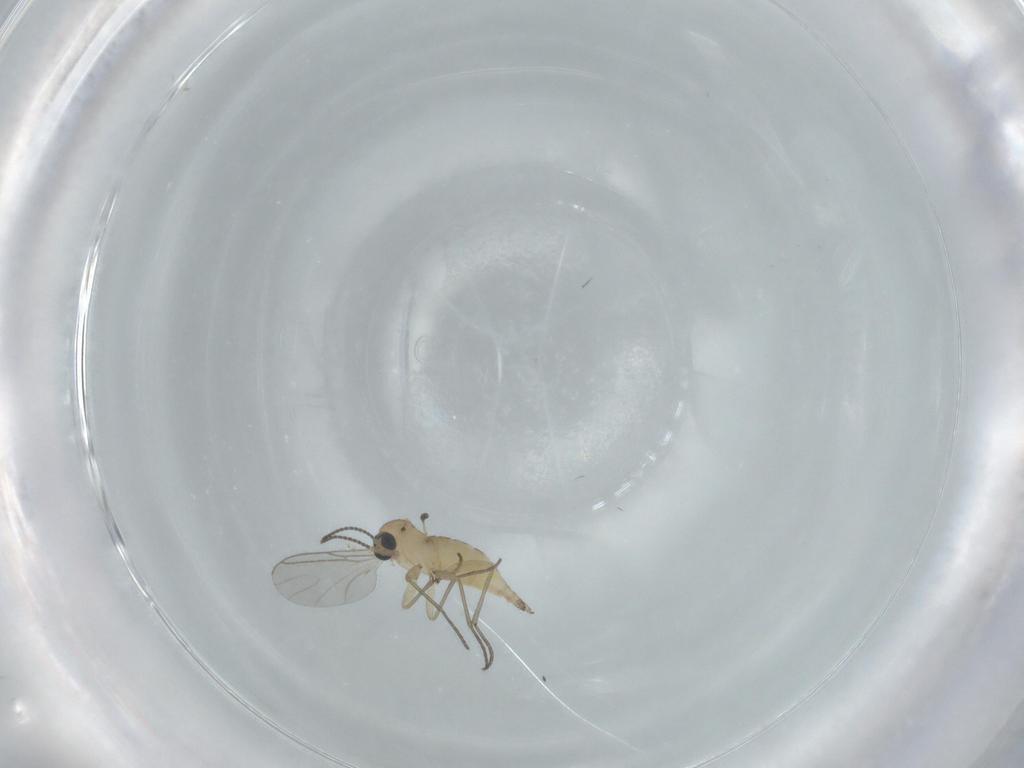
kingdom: Animalia
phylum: Arthropoda
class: Insecta
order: Diptera
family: Sciaridae
